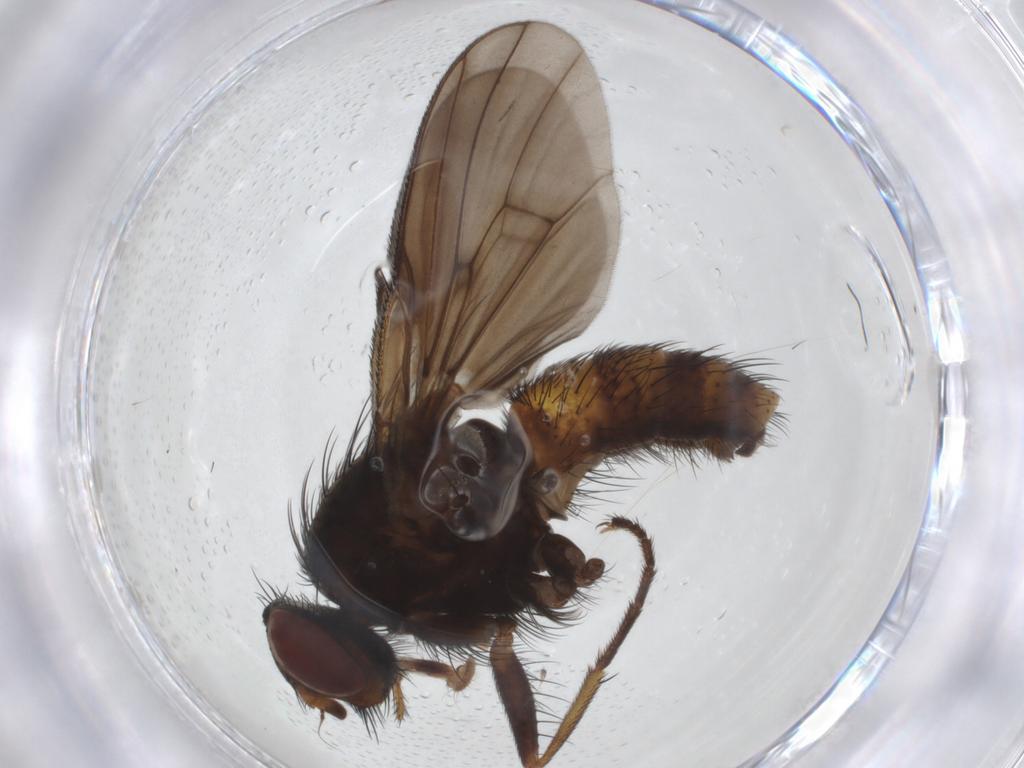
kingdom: Animalia
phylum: Arthropoda
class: Insecta
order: Diptera
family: Muscidae
